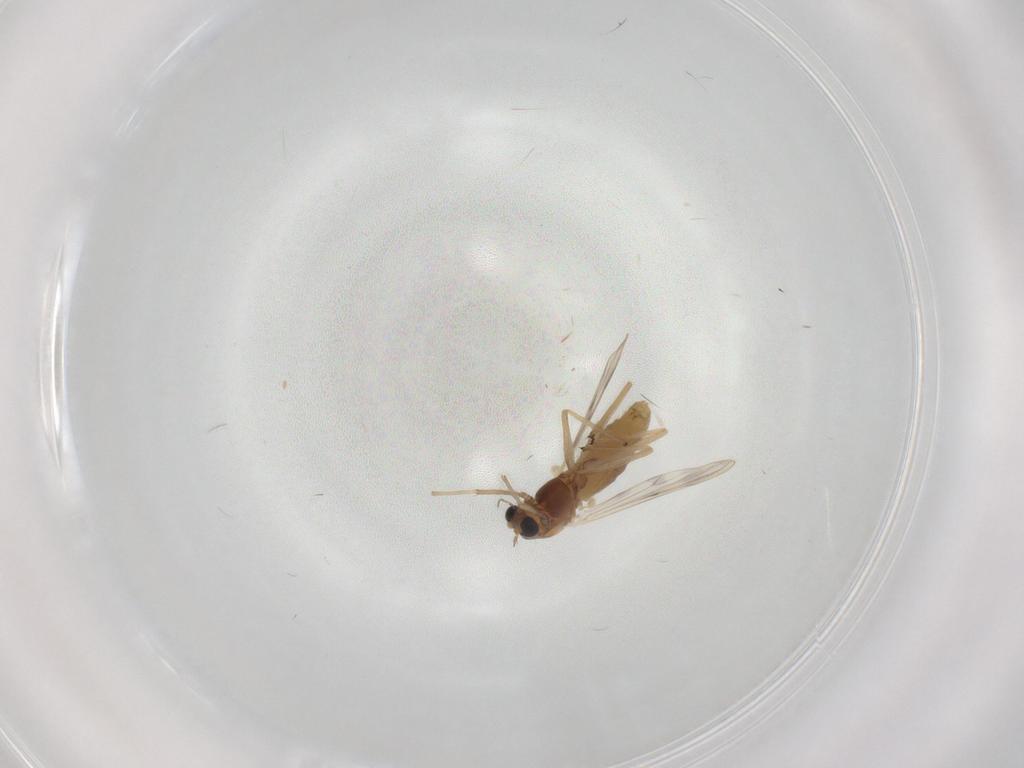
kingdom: Animalia
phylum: Arthropoda
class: Insecta
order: Diptera
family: Chironomidae
